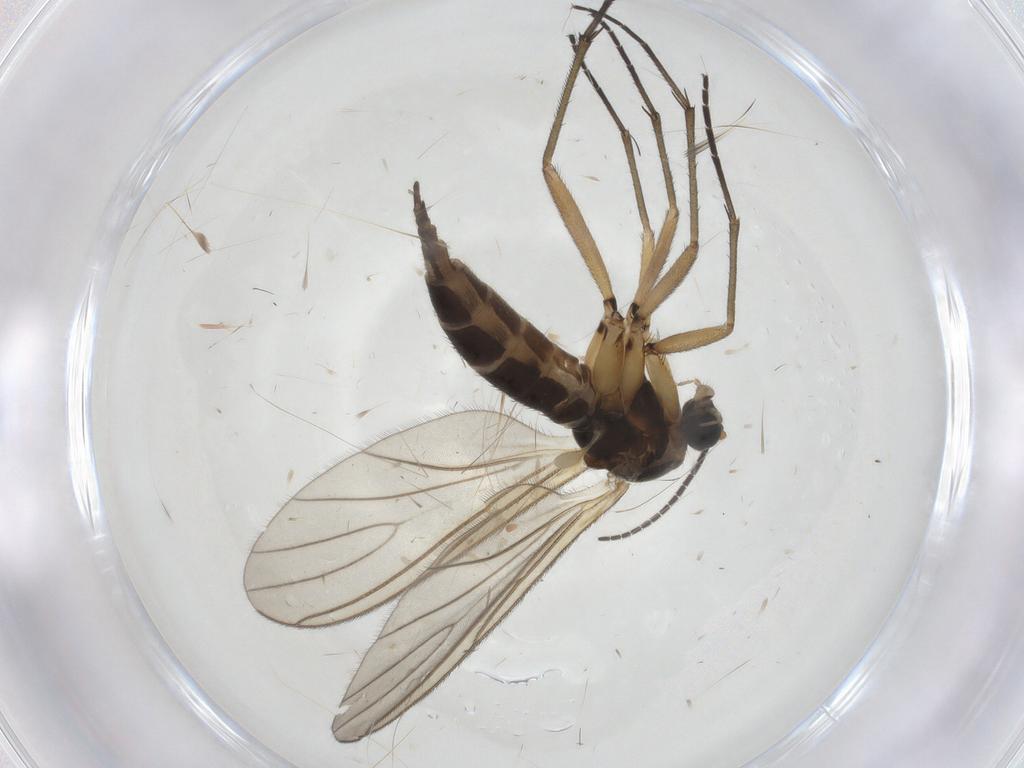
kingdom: Animalia
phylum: Arthropoda
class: Insecta
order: Diptera
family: Sciaridae
